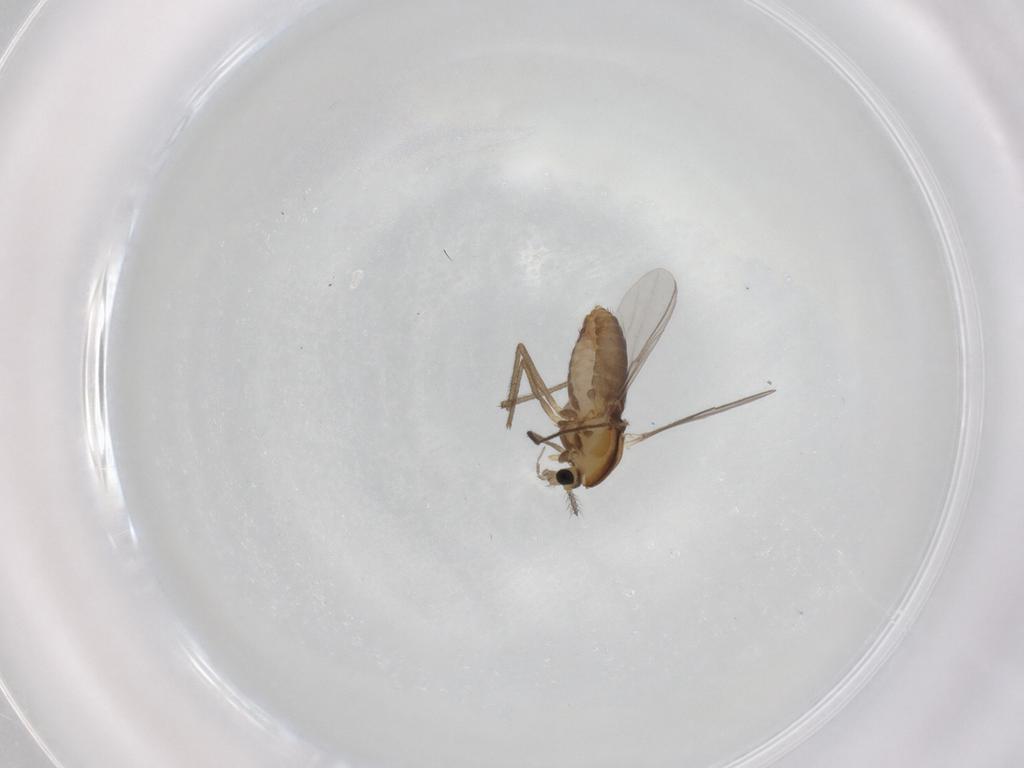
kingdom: Animalia
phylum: Arthropoda
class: Insecta
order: Diptera
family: Chironomidae
